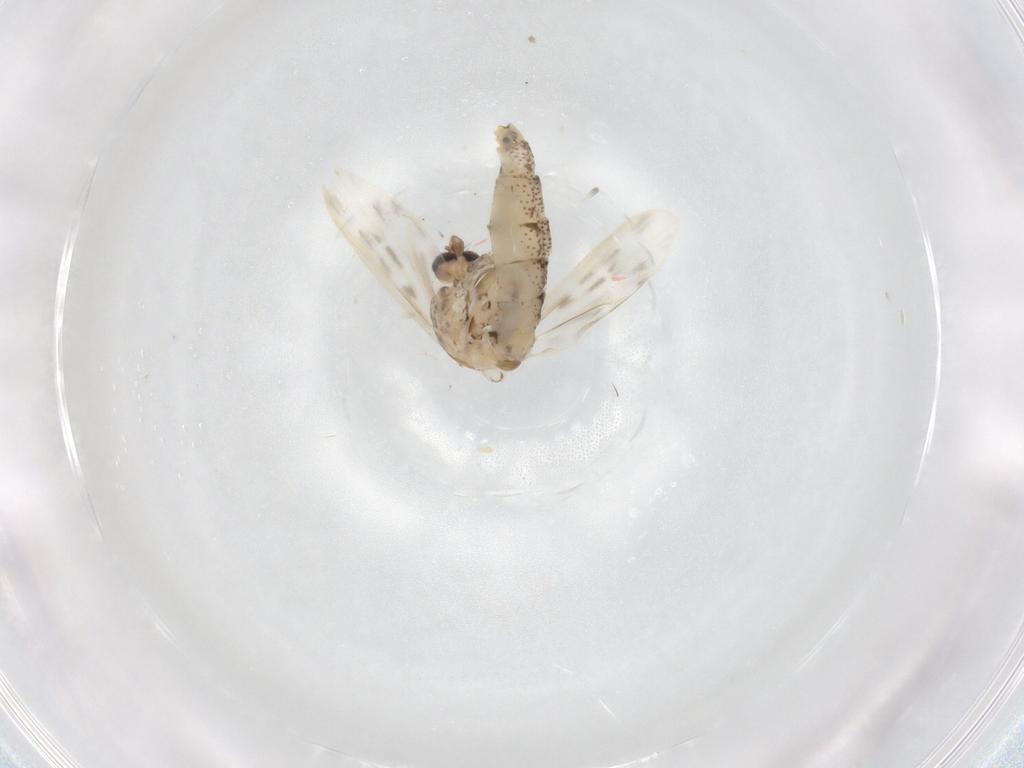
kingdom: Animalia
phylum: Arthropoda
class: Insecta
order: Diptera
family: Chaoboridae
